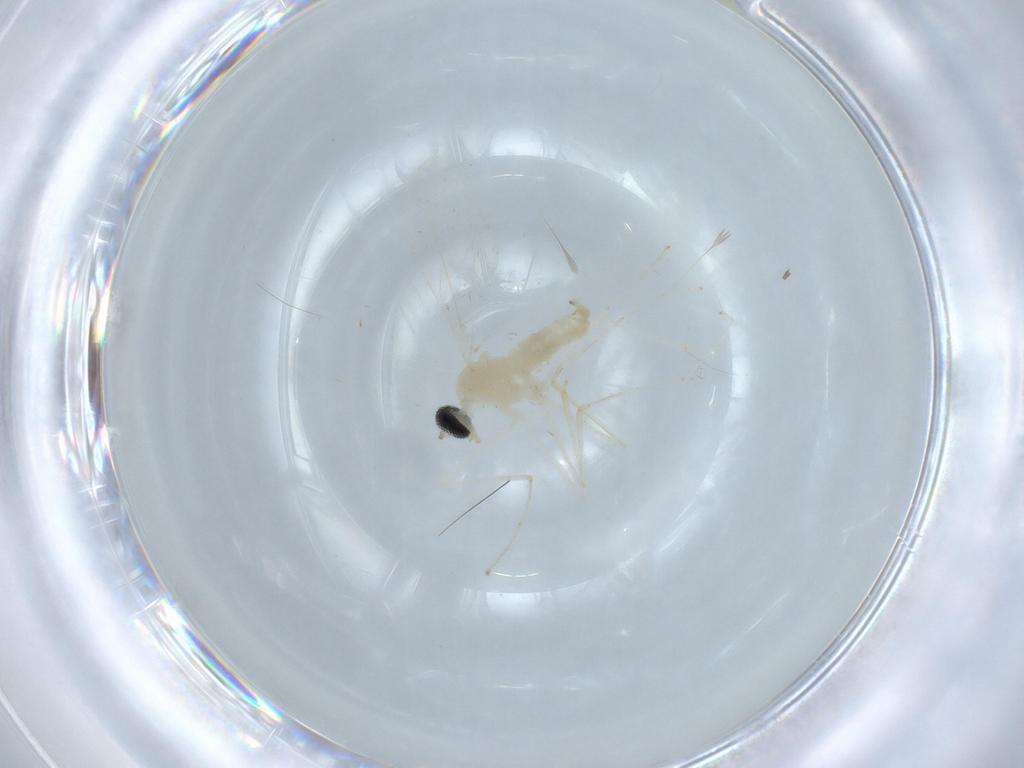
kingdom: Animalia
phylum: Arthropoda
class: Insecta
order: Diptera
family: Cecidomyiidae
